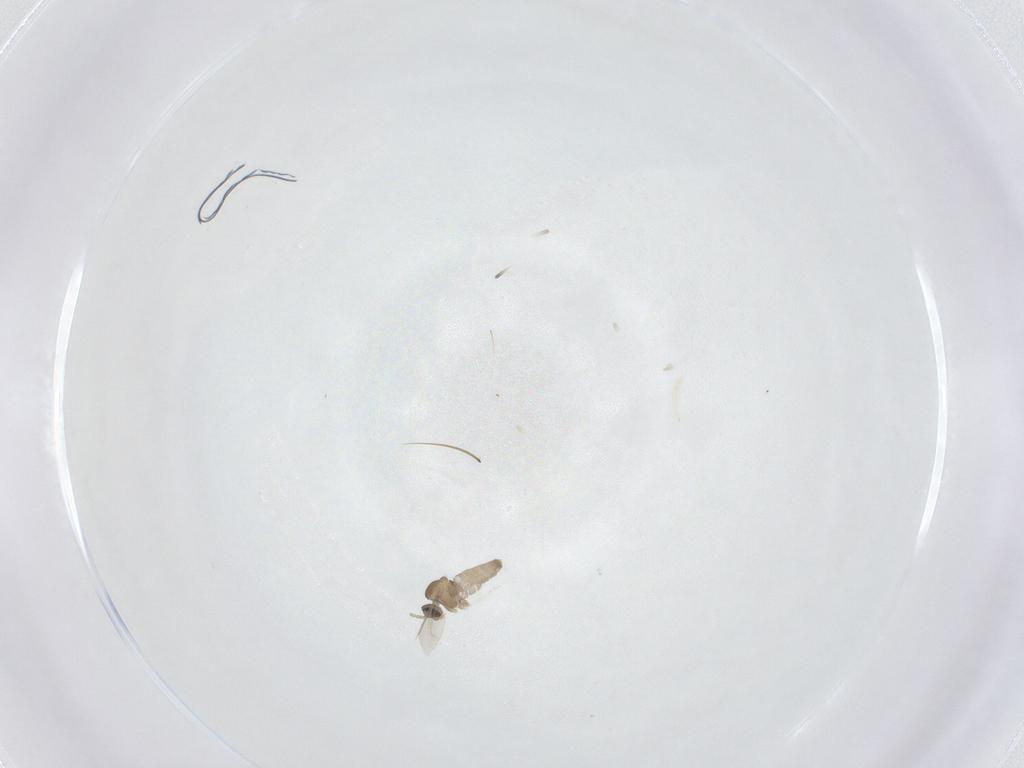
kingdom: Animalia
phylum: Arthropoda
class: Insecta
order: Diptera
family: Cecidomyiidae
